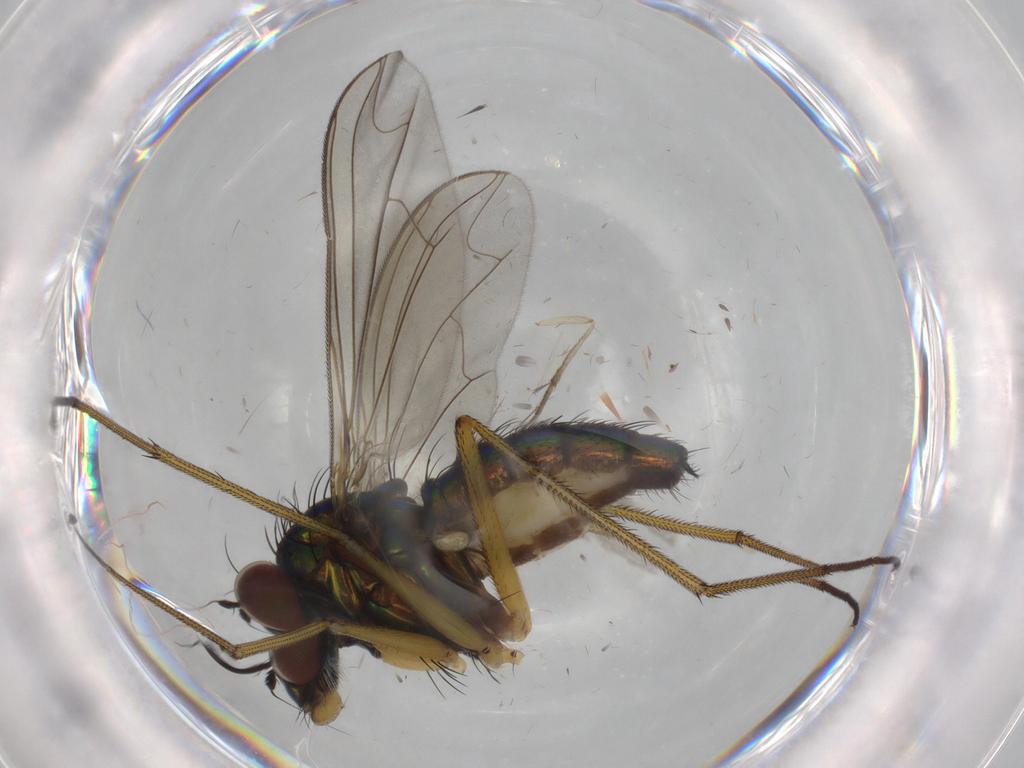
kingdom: Animalia
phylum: Arthropoda
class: Insecta
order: Diptera
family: Dolichopodidae
